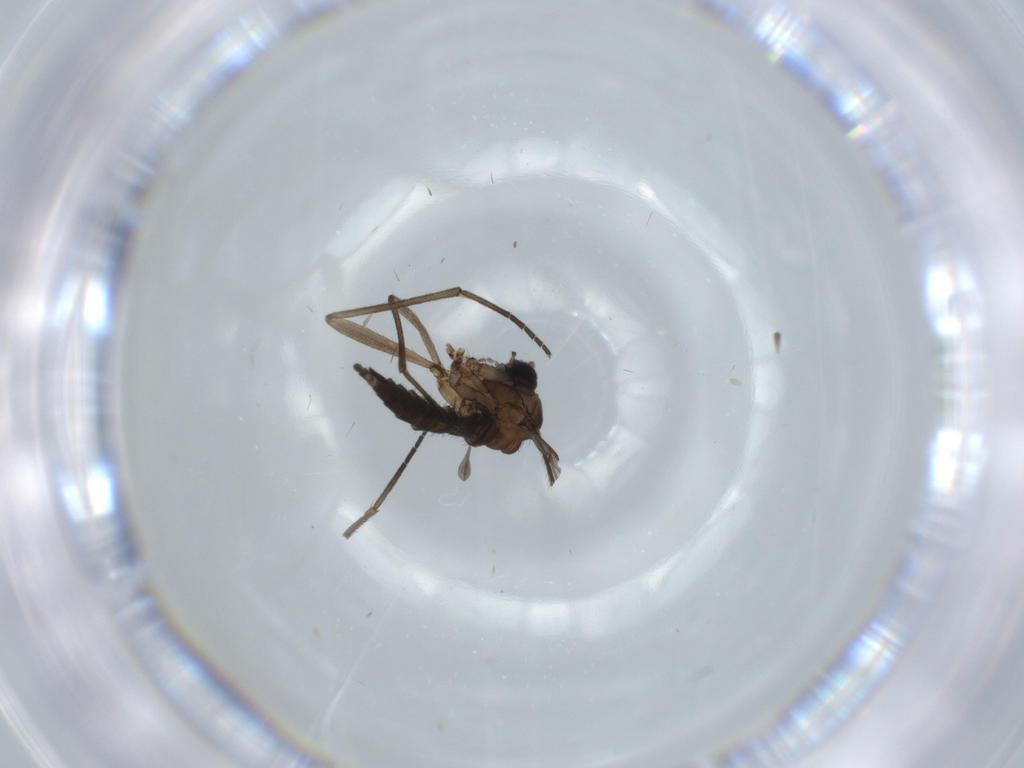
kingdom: Animalia
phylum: Arthropoda
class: Insecta
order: Diptera
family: Sciaridae
